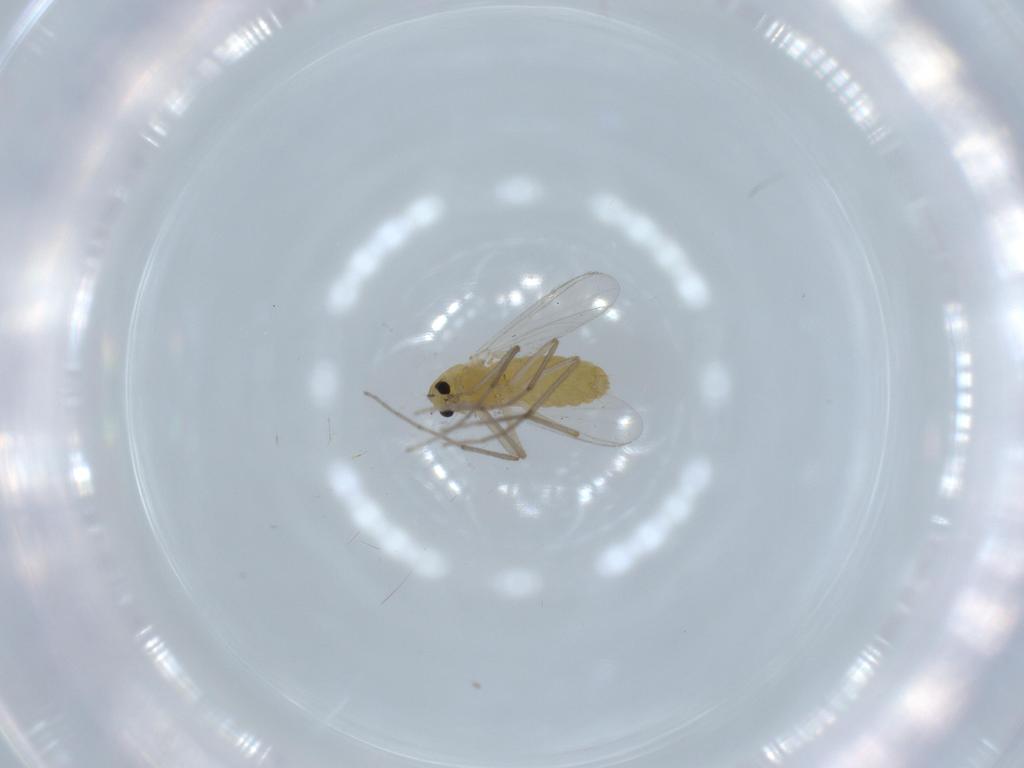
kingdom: Animalia
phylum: Arthropoda
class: Insecta
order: Diptera
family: Chironomidae
